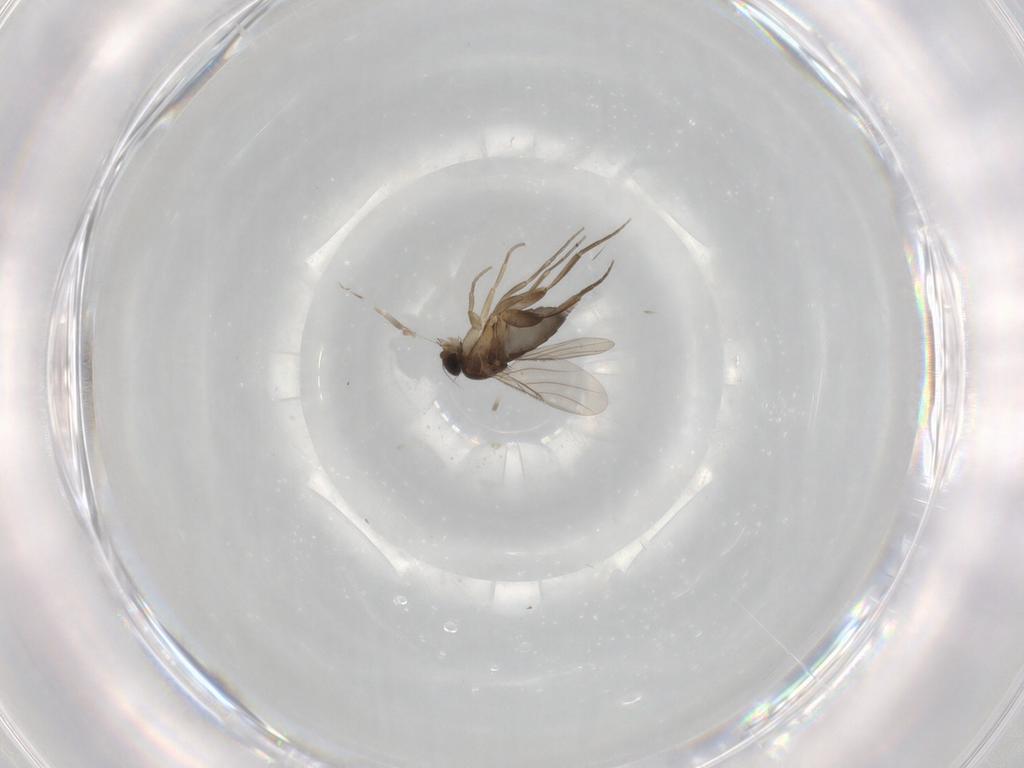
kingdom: Animalia
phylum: Arthropoda
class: Insecta
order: Diptera
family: Phoridae
